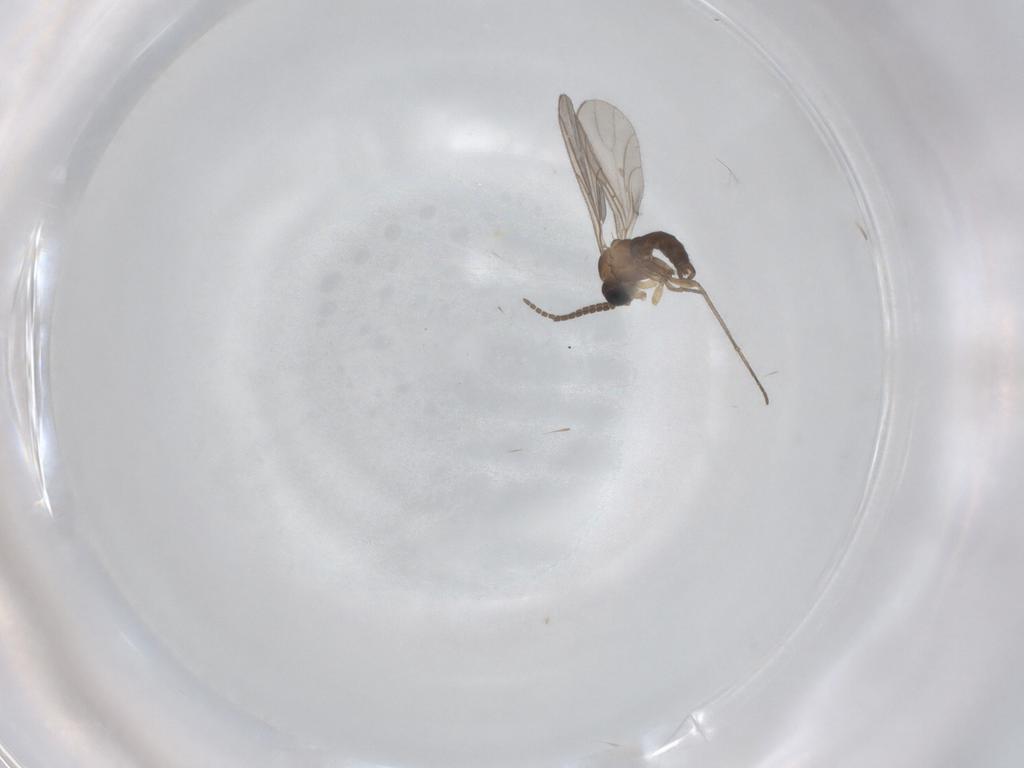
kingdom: Animalia
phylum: Arthropoda
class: Insecta
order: Diptera
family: Sciaridae
